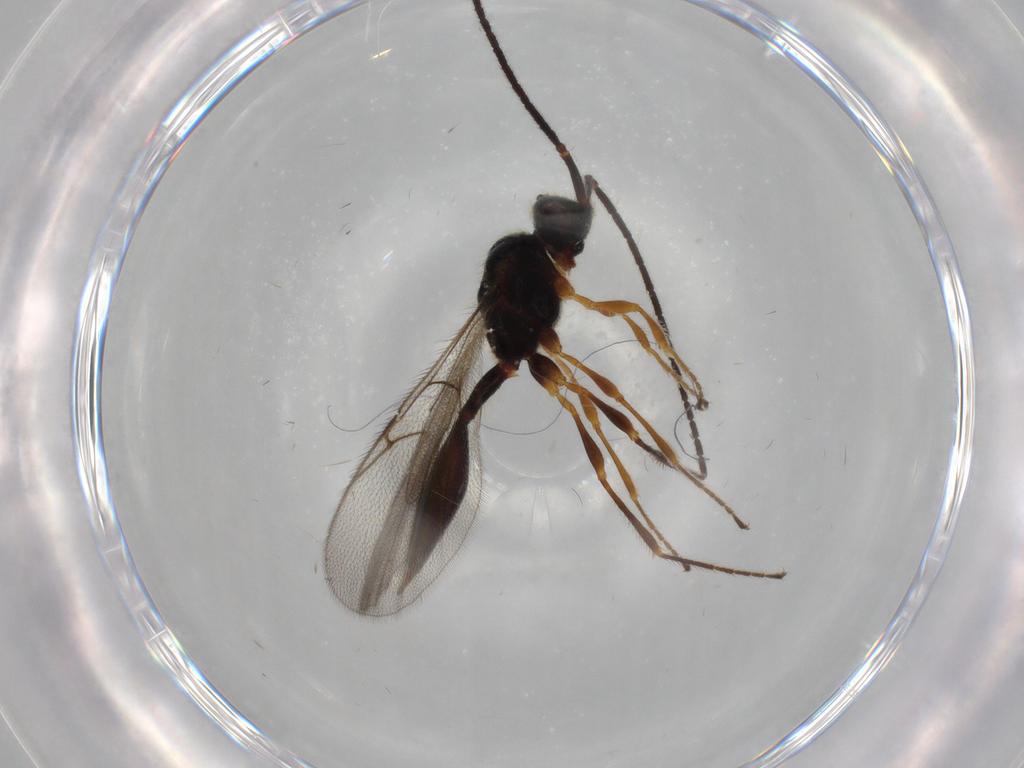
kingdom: Animalia
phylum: Arthropoda
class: Insecta
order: Hymenoptera
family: Diapriidae
